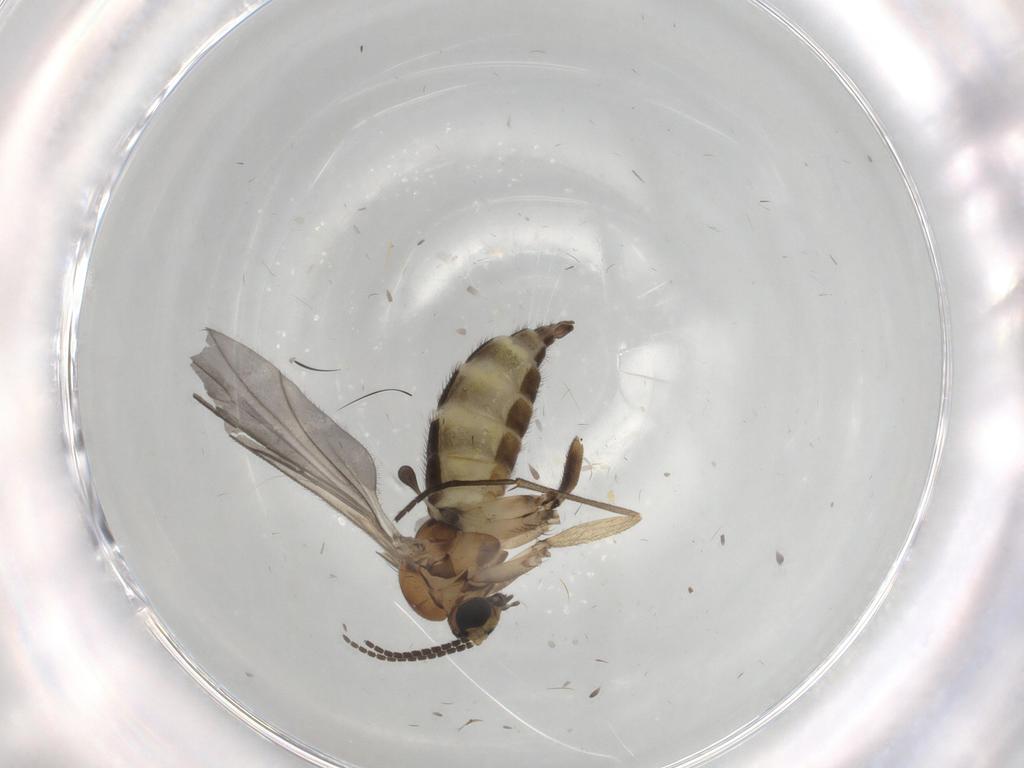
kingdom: Animalia
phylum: Arthropoda
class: Insecta
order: Diptera
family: Sciaridae
